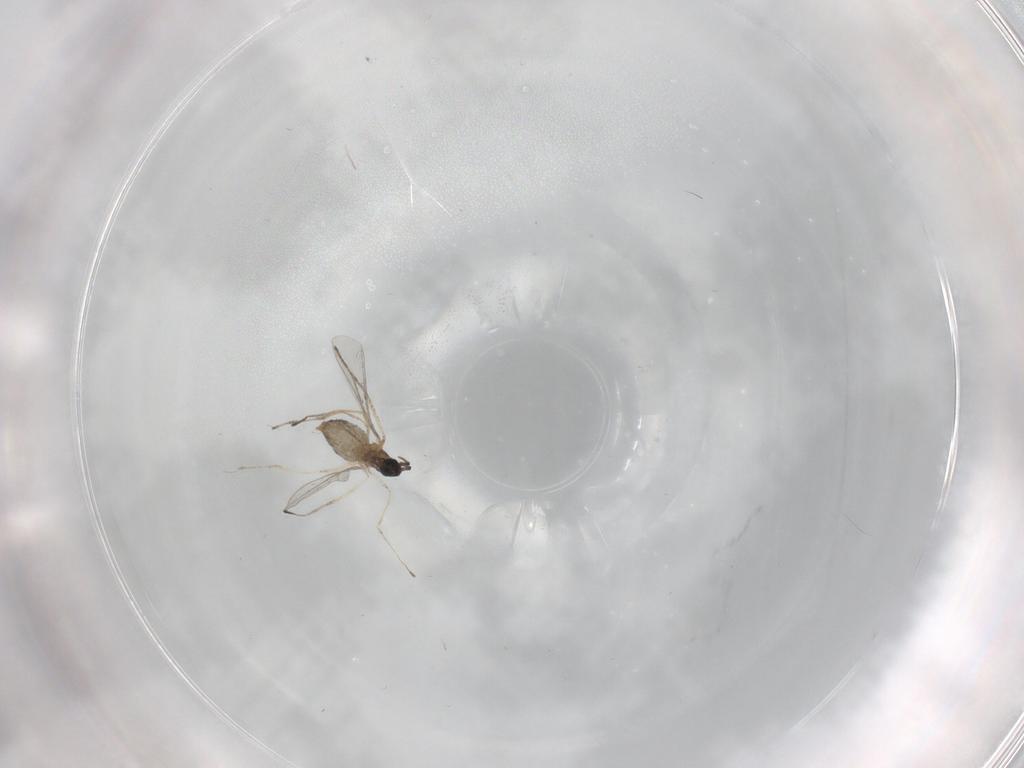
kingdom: Animalia
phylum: Arthropoda
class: Insecta
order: Diptera
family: Cecidomyiidae
